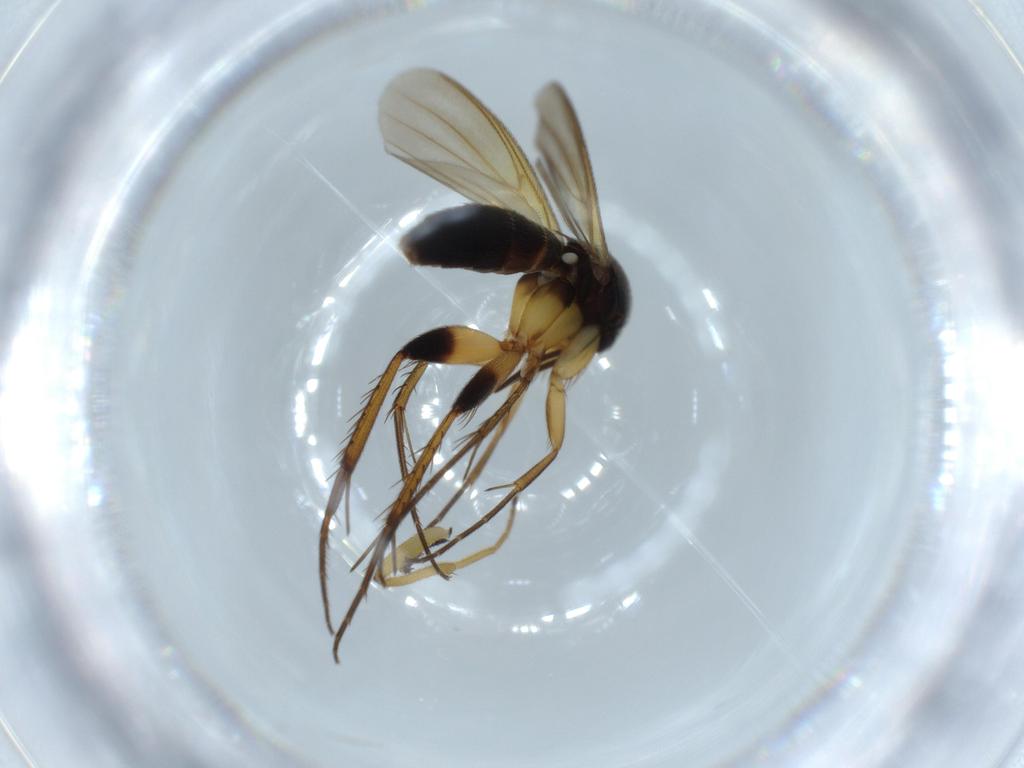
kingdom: Animalia
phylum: Arthropoda
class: Insecta
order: Diptera
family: Hybotidae
